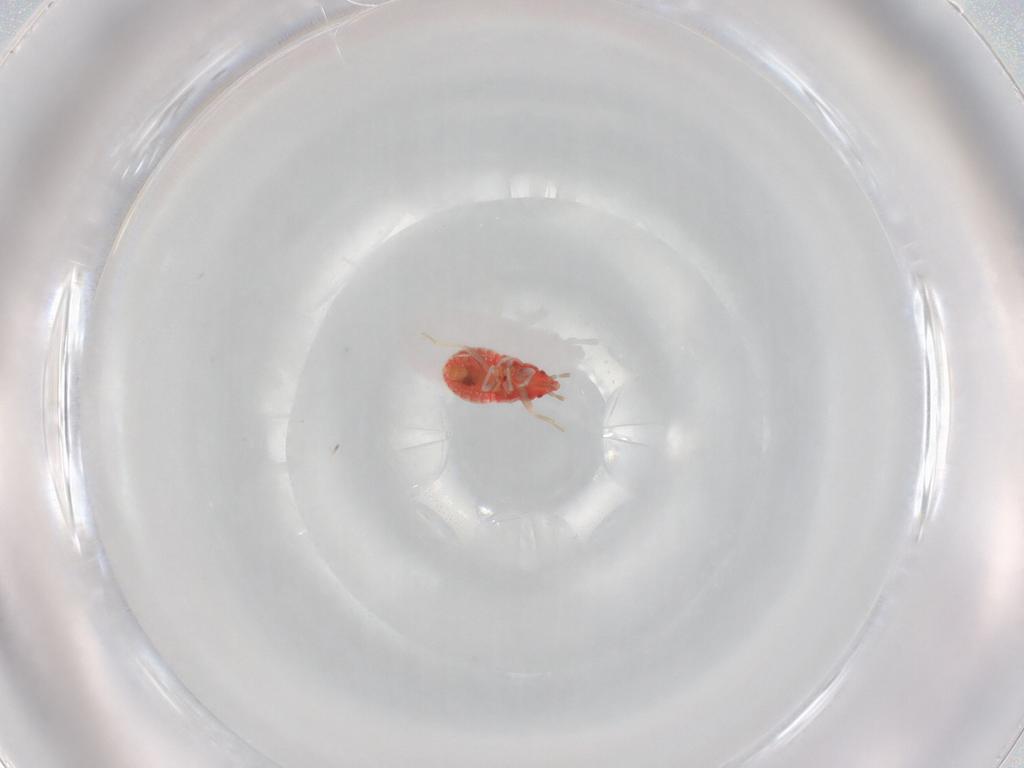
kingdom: Animalia
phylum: Arthropoda
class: Insecta
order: Hemiptera
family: Anthocoridae
